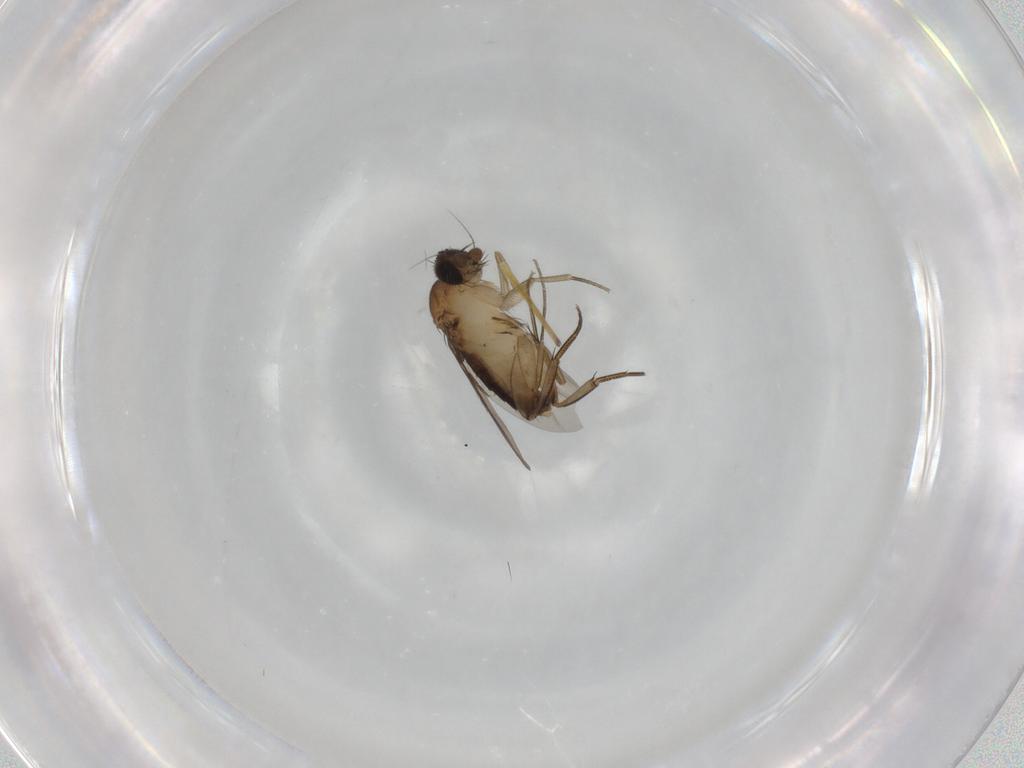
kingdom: Animalia
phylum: Arthropoda
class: Insecta
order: Diptera
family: Phoridae
